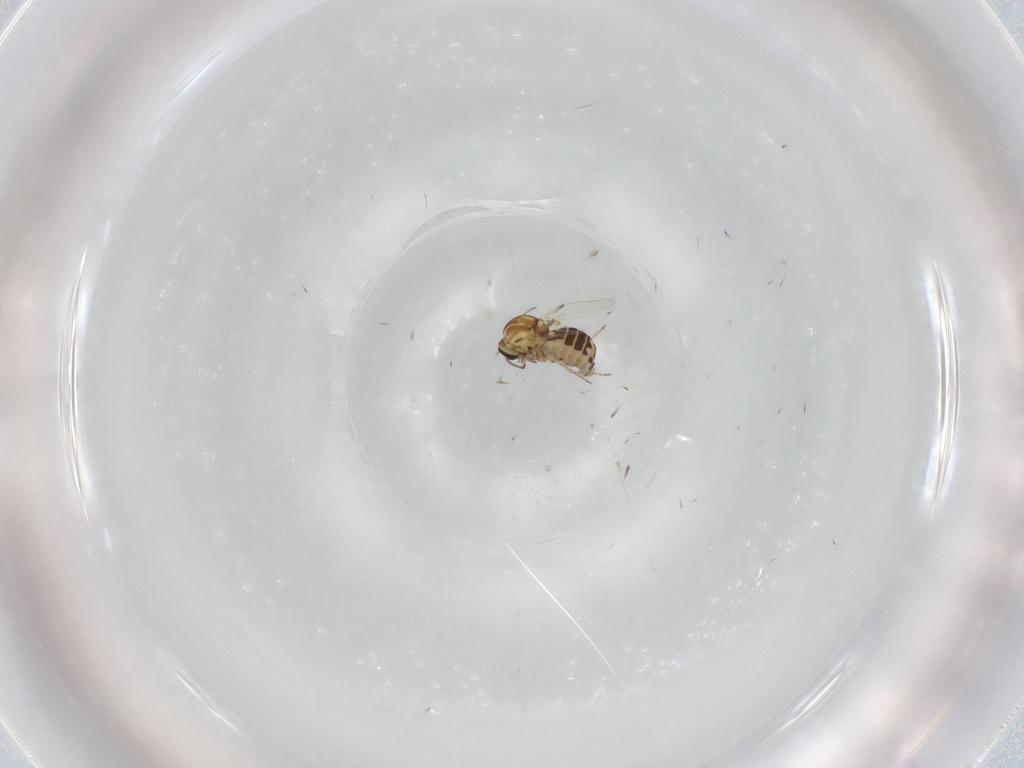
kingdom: Animalia
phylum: Arthropoda
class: Insecta
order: Diptera
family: Ceratopogonidae
